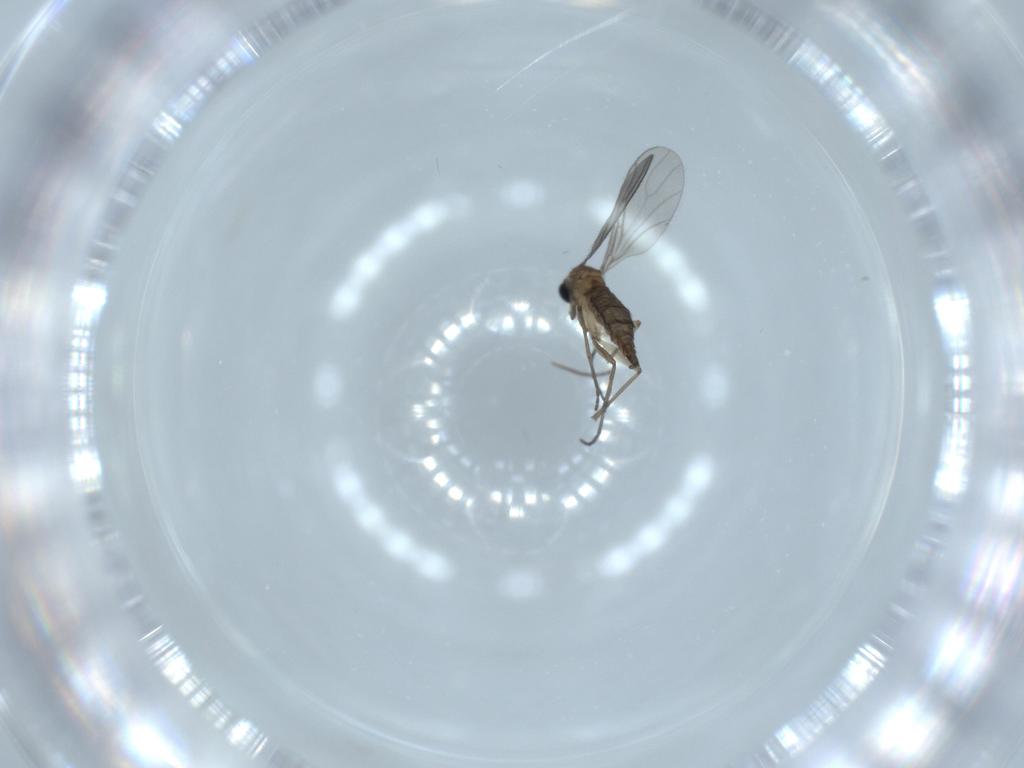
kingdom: Animalia
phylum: Arthropoda
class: Insecta
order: Diptera
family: Sciaridae
